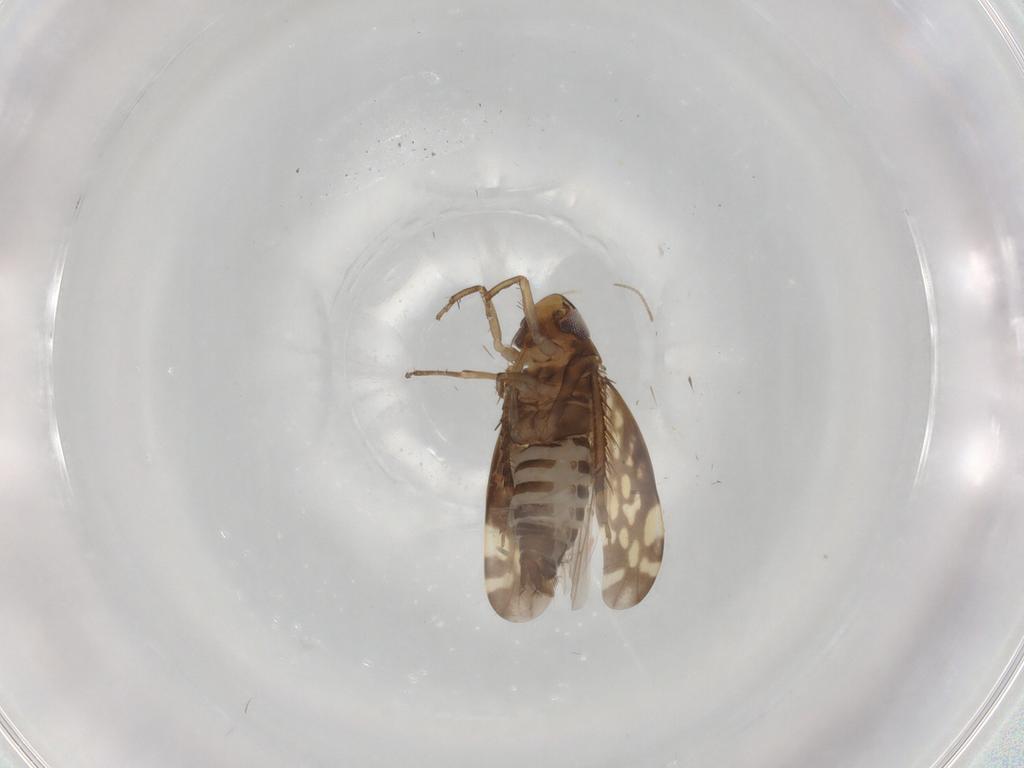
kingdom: Animalia
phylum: Arthropoda
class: Insecta
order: Hemiptera
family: Cicadellidae
